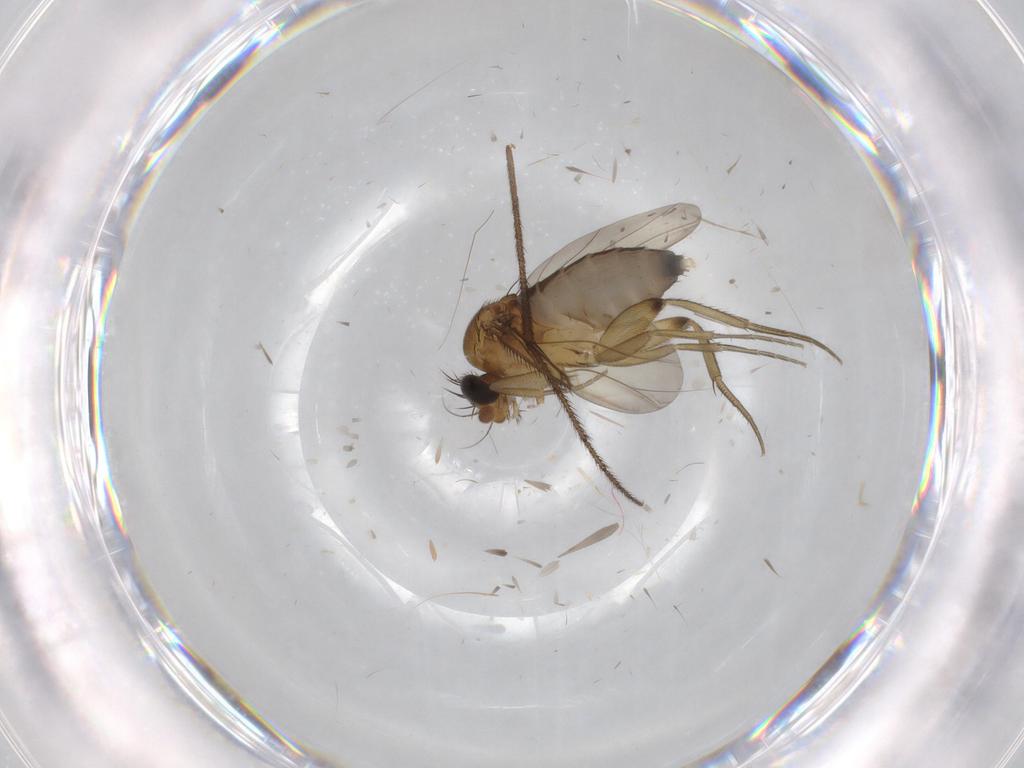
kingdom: Animalia
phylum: Arthropoda
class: Insecta
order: Diptera
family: Phoridae
